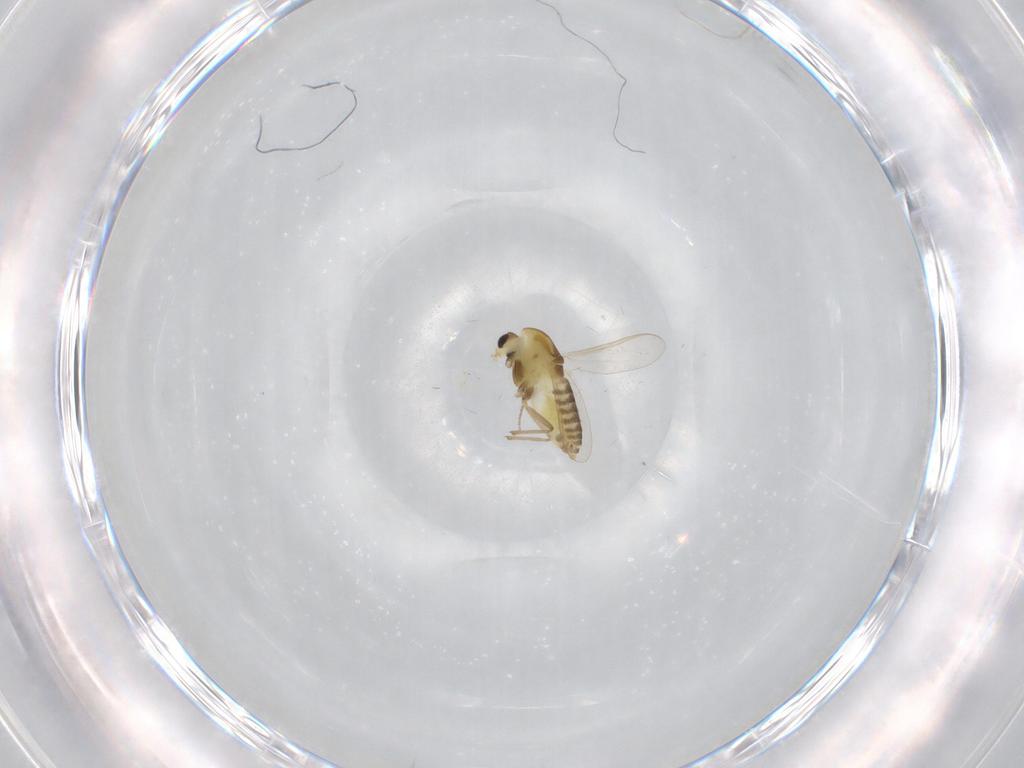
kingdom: Animalia
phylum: Arthropoda
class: Insecta
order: Diptera
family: Chironomidae
